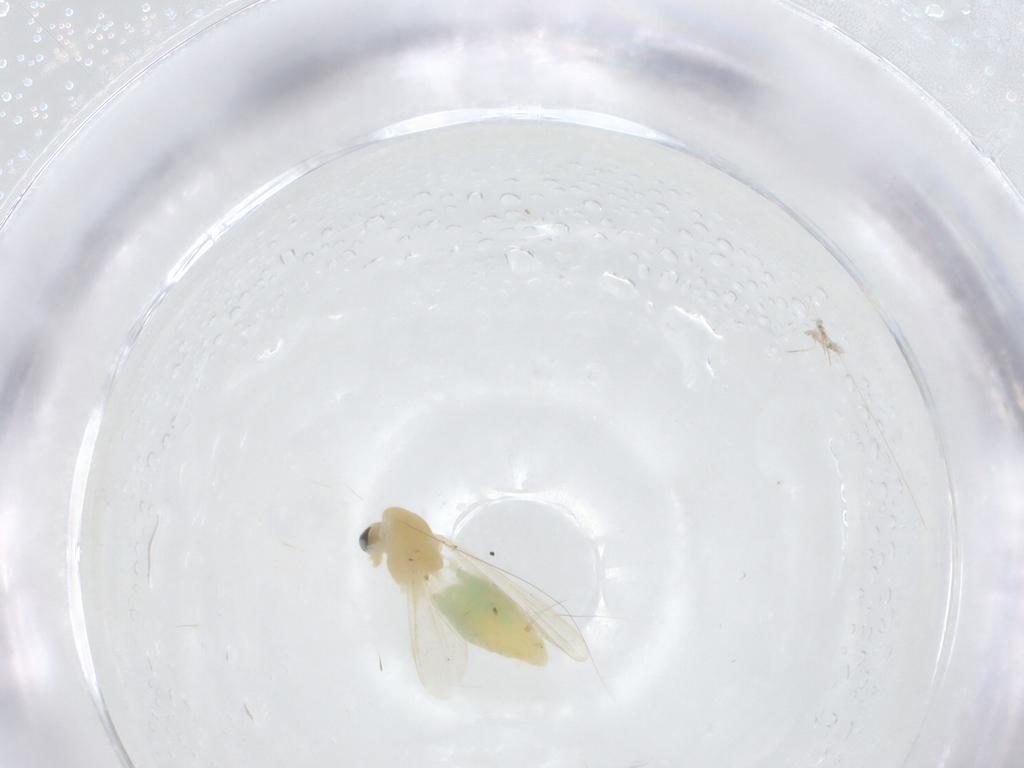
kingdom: Animalia
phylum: Arthropoda
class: Insecta
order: Diptera
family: Chironomidae
